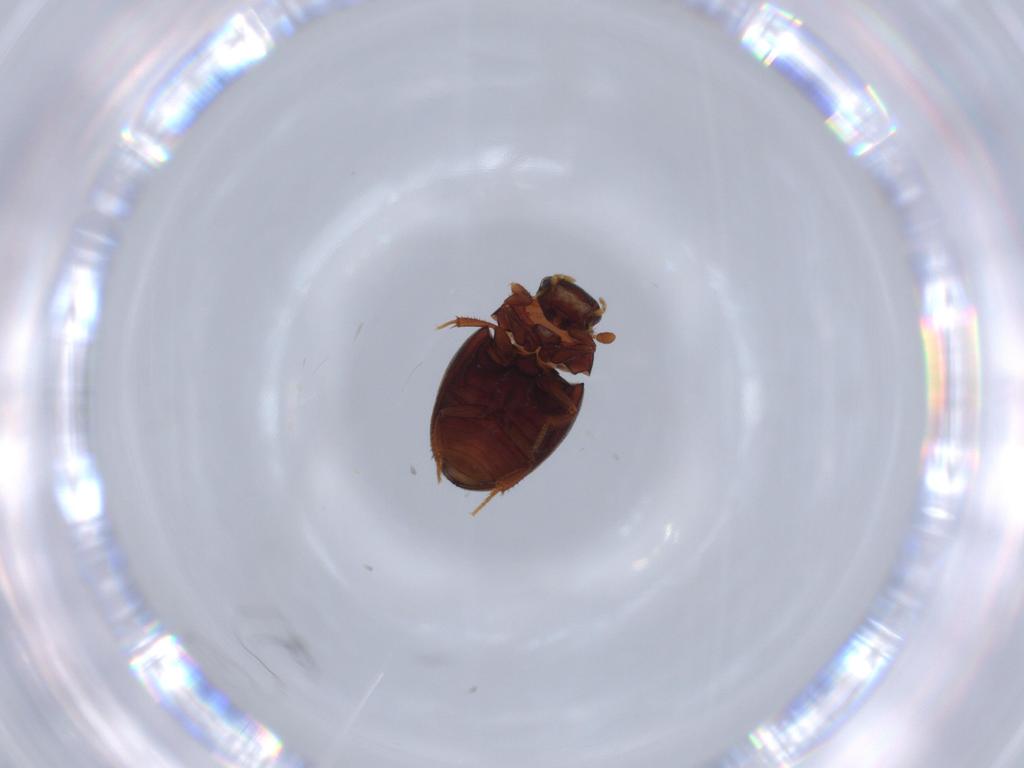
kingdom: Animalia
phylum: Arthropoda
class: Insecta
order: Coleoptera
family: Hydrophilidae
